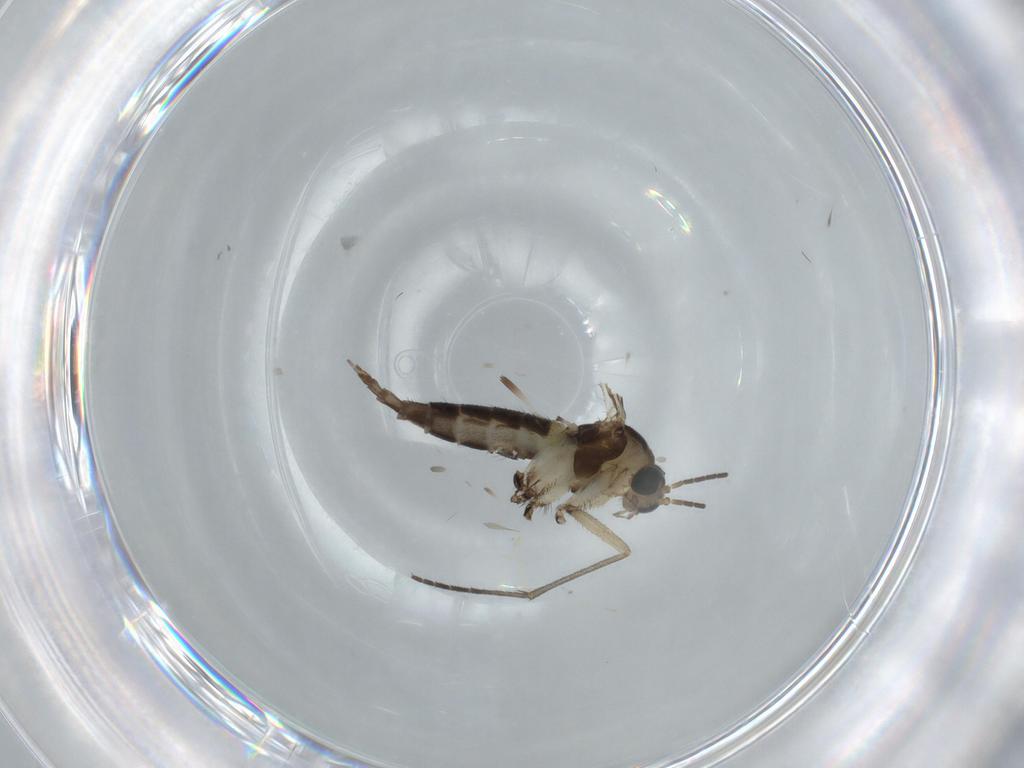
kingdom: Animalia
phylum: Arthropoda
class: Insecta
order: Diptera
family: Sciaridae
